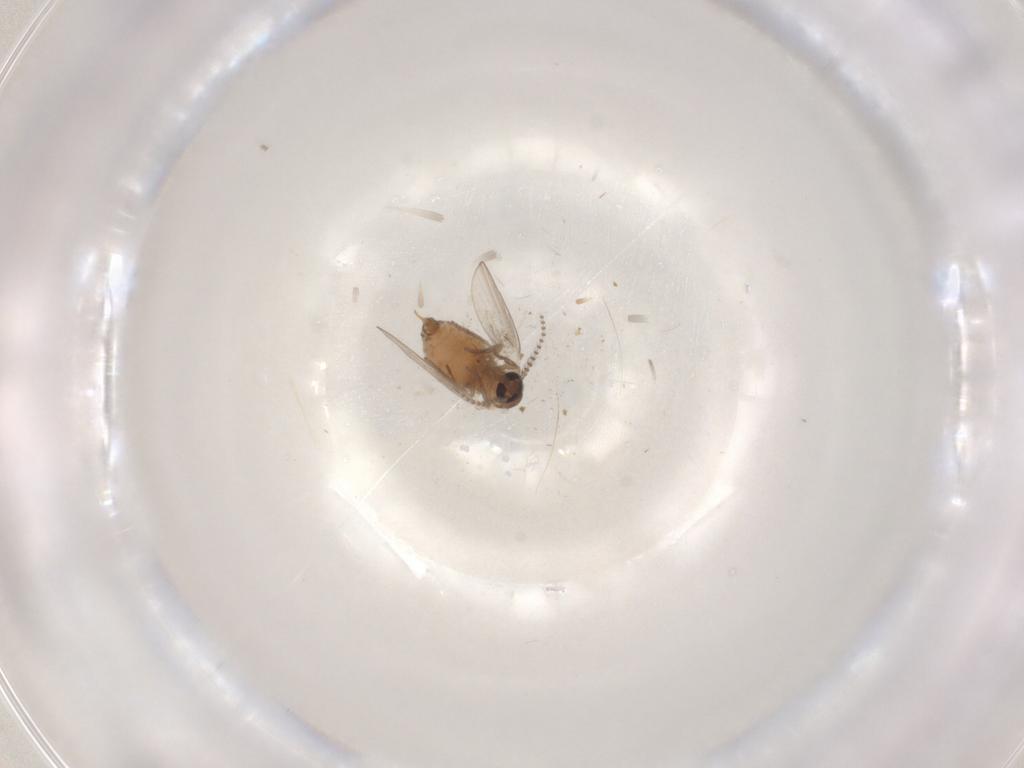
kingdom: Animalia
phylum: Arthropoda
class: Insecta
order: Diptera
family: Psychodidae
